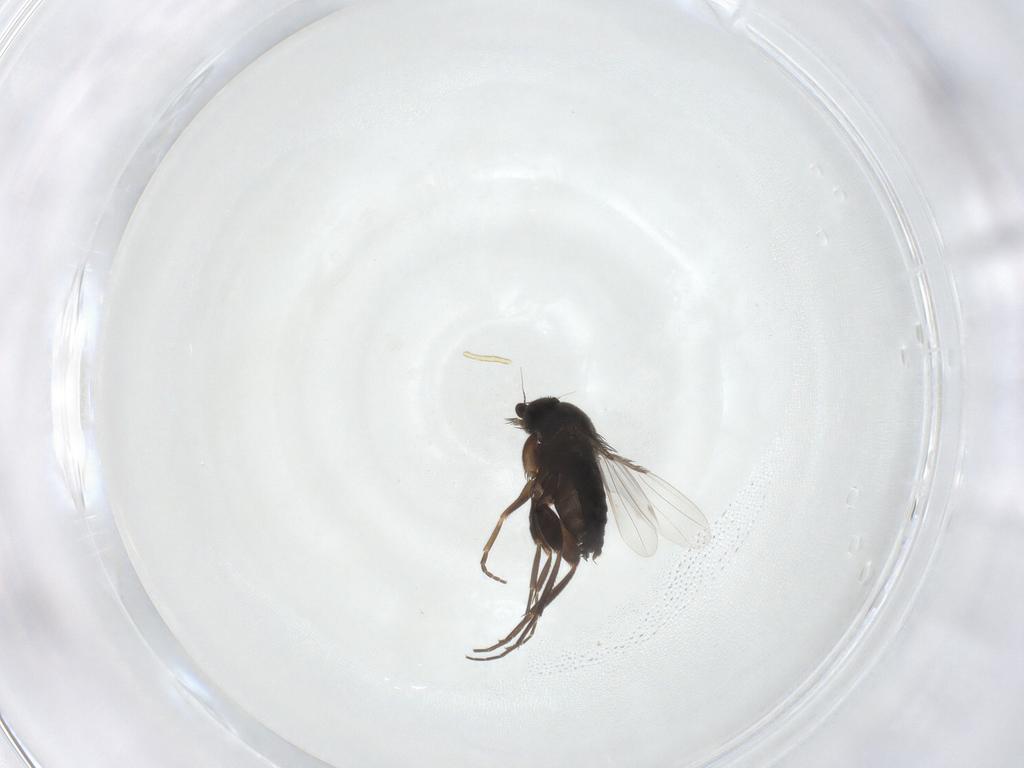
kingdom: Animalia
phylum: Arthropoda
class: Insecta
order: Diptera
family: Phoridae
